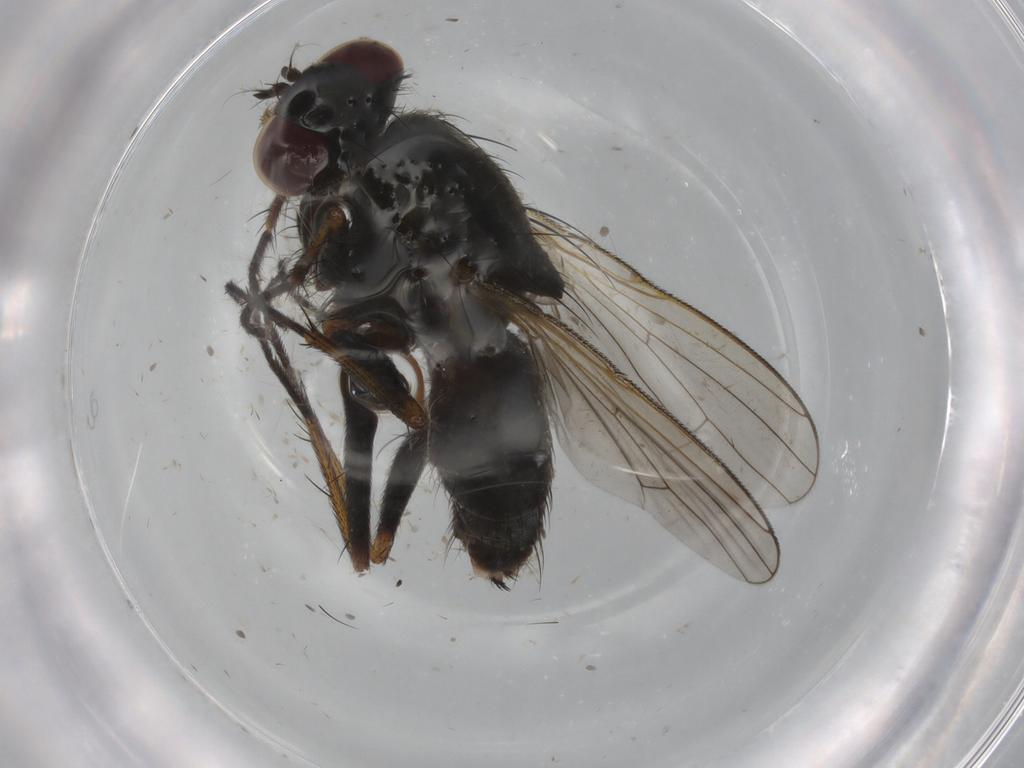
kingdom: Animalia
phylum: Arthropoda
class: Insecta
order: Diptera
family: Muscidae
